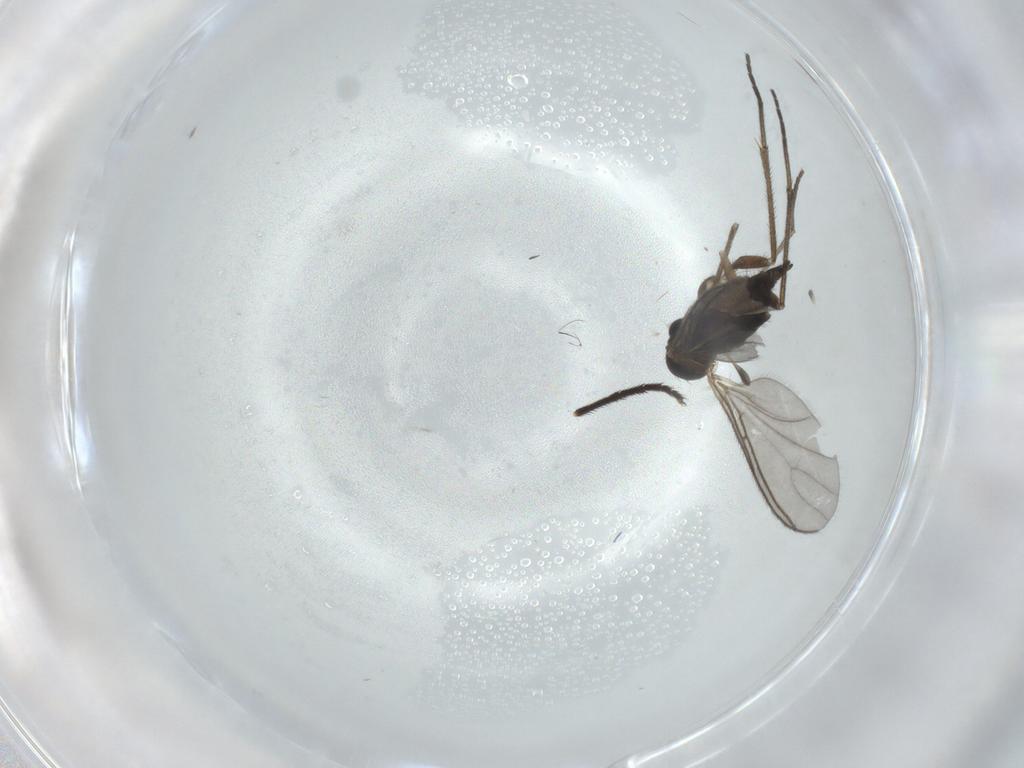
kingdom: Animalia
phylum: Arthropoda
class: Insecta
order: Diptera
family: Sciaridae
